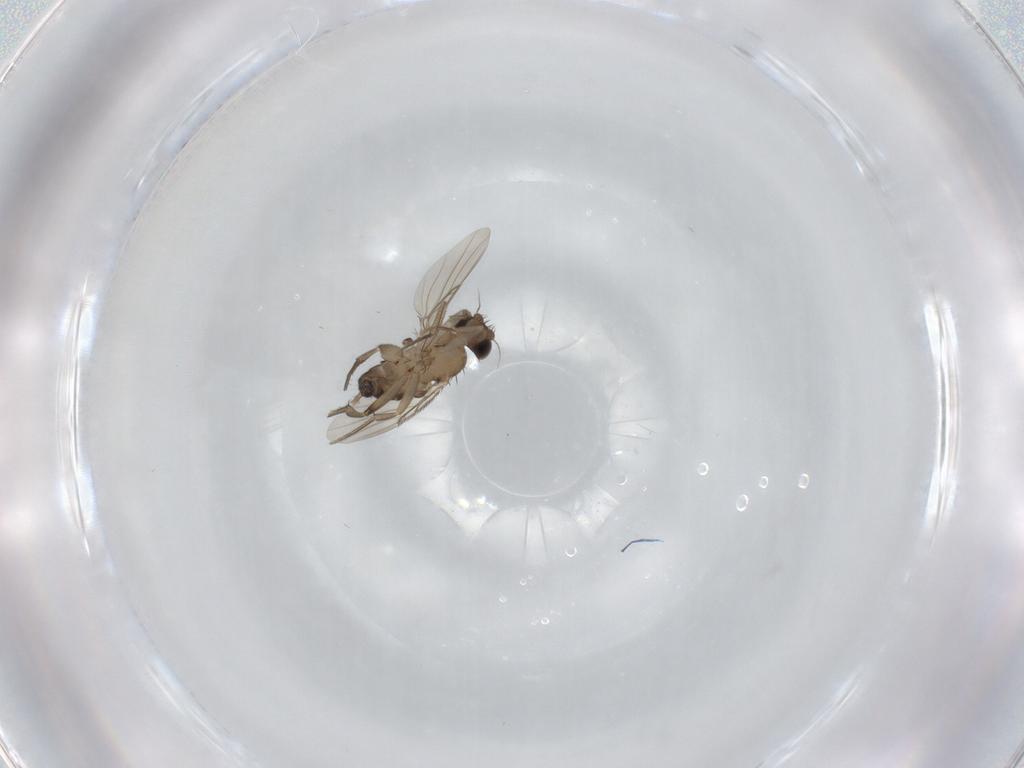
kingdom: Animalia
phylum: Arthropoda
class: Insecta
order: Diptera
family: Phoridae
